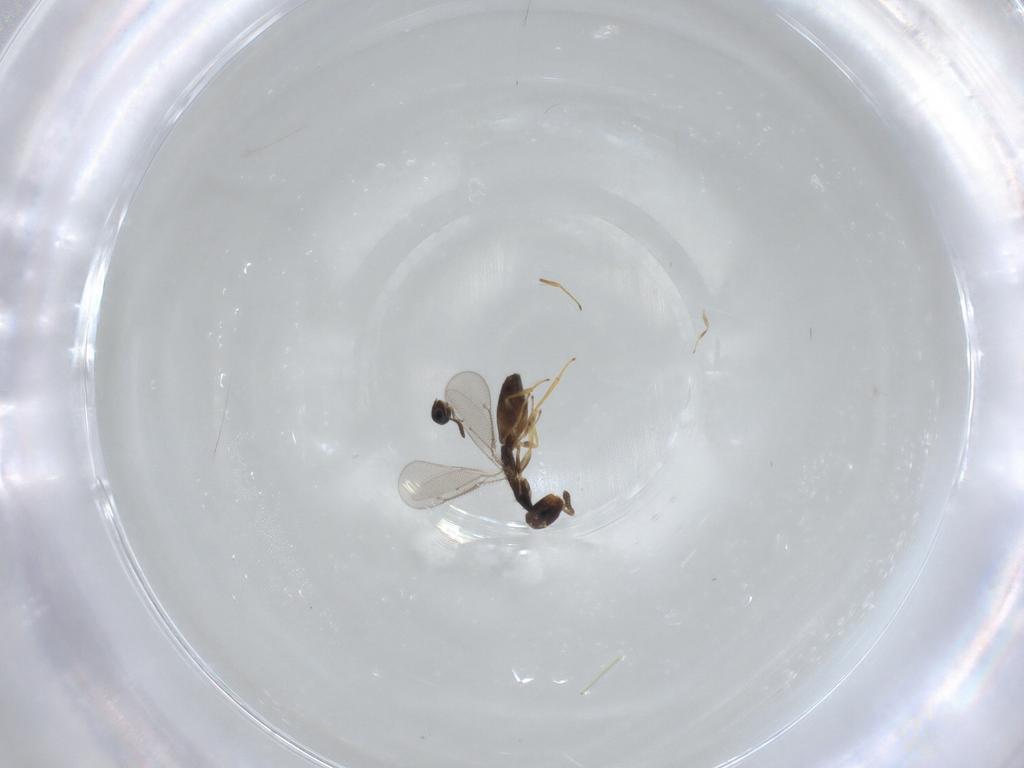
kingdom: Animalia
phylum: Arthropoda
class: Insecta
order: Hymenoptera
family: Scelionidae
